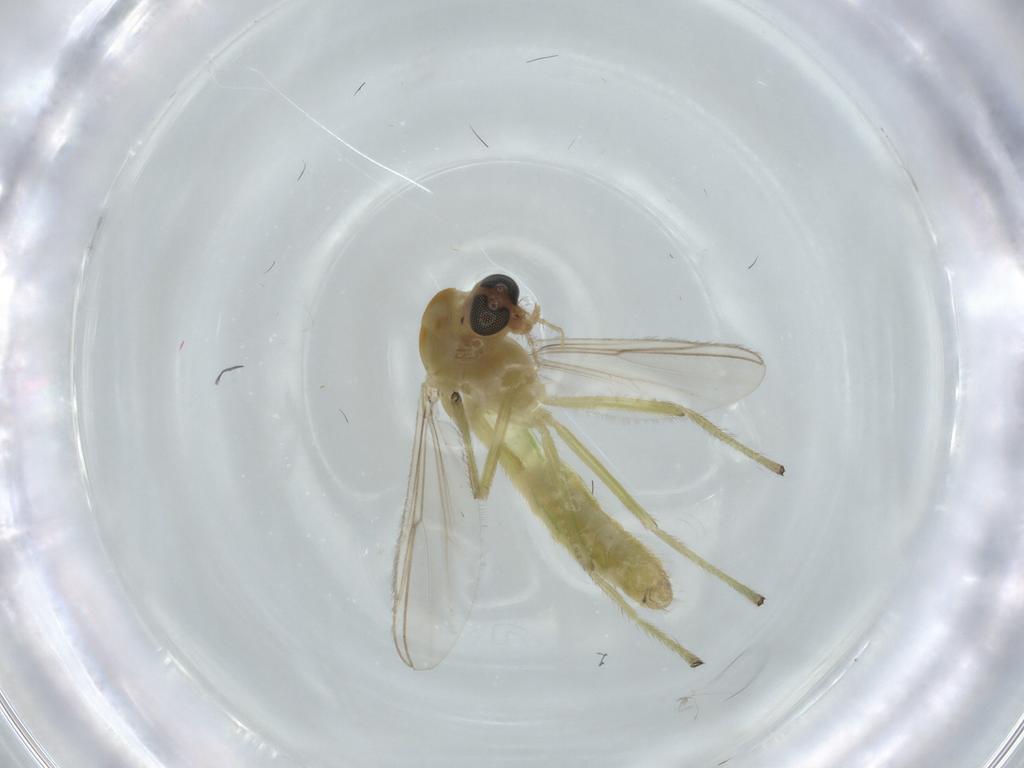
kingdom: Animalia
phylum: Arthropoda
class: Insecta
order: Diptera
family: Chironomidae
